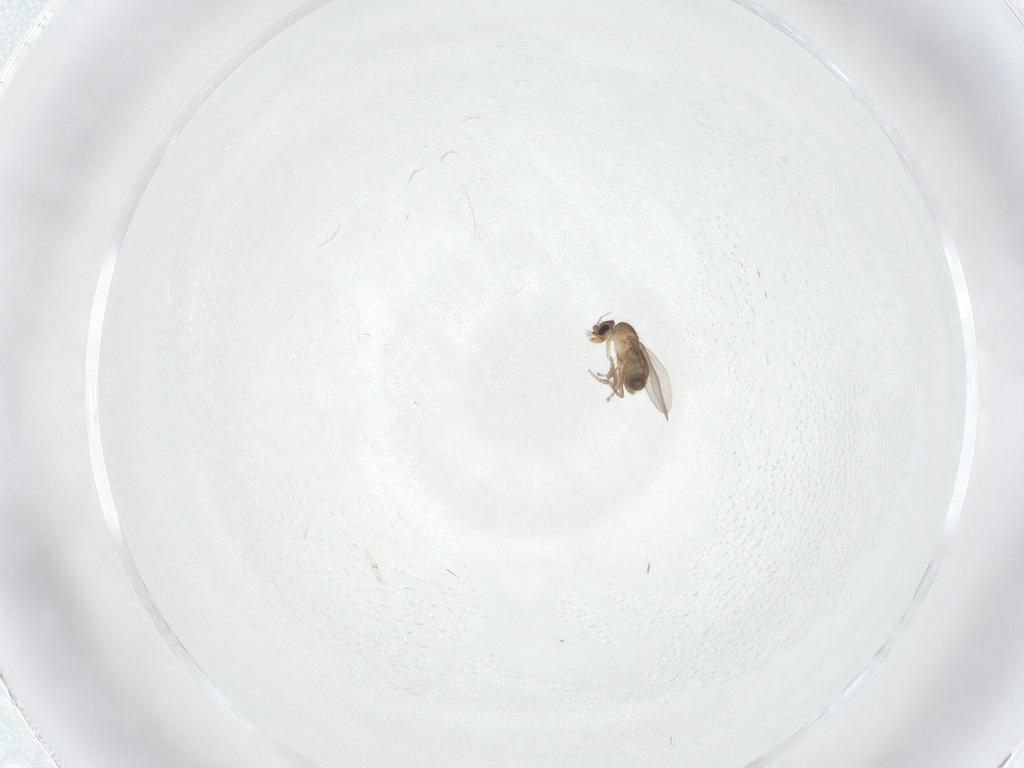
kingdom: Animalia
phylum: Arthropoda
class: Insecta
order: Diptera
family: Phoridae
